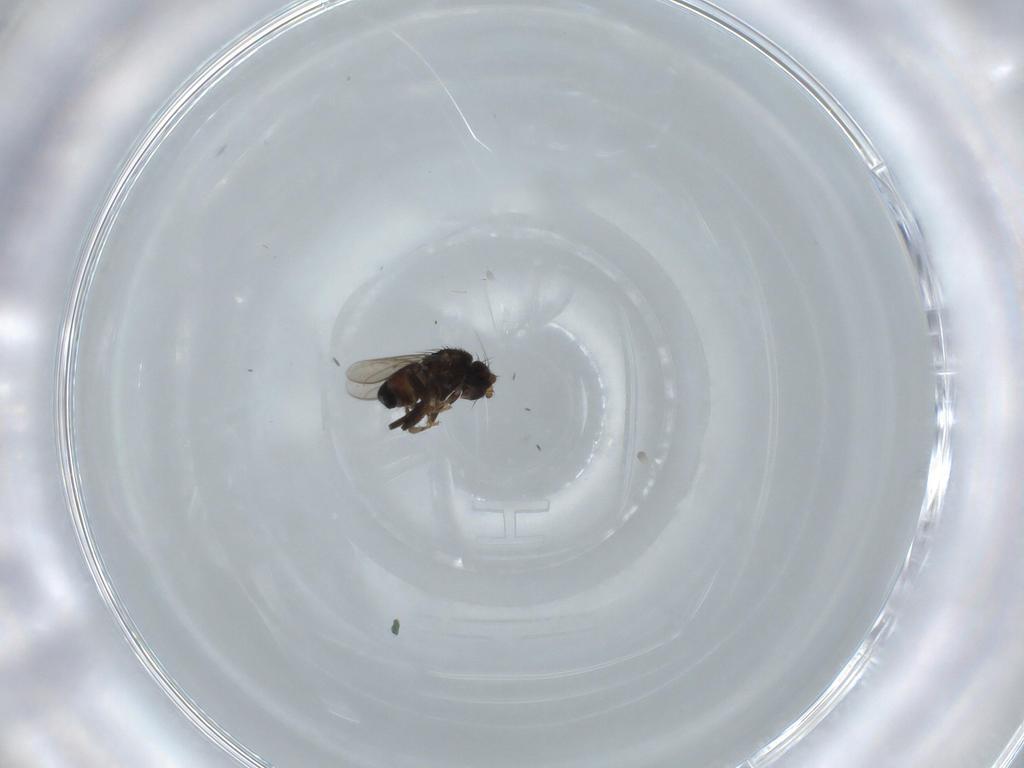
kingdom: Animalia
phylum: Arthropoda
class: Insecta
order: Diptera
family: Sphaeroceridae
